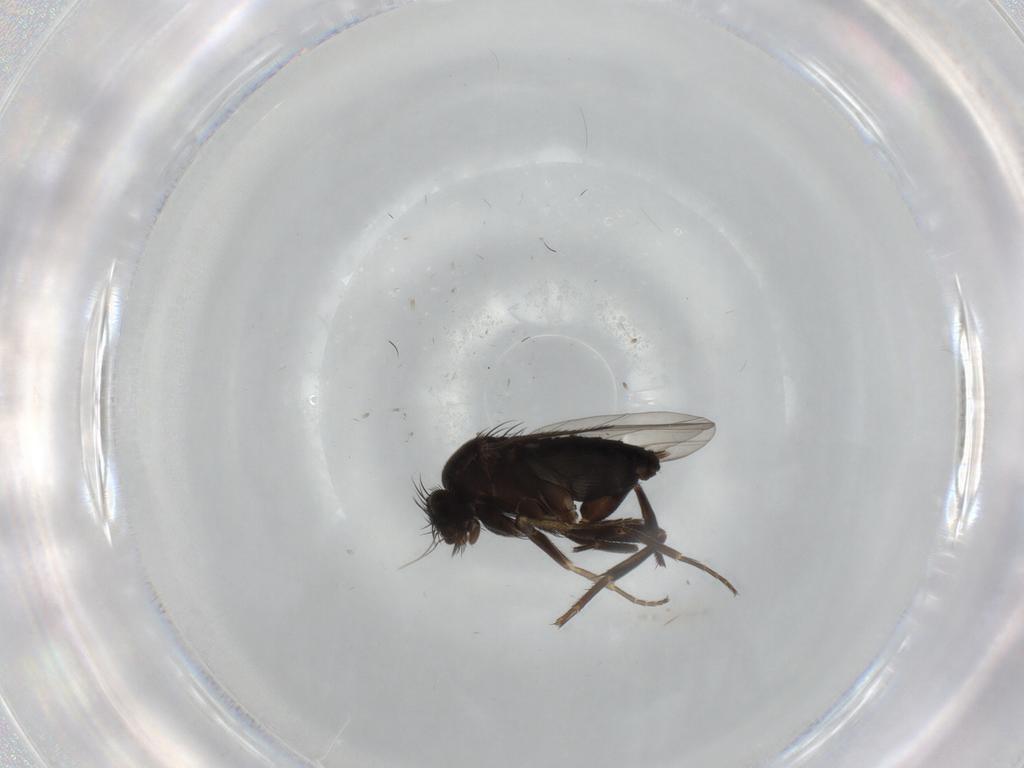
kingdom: Animalia
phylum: Arthropoda
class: Insecta
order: Diptera
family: Phoridae
